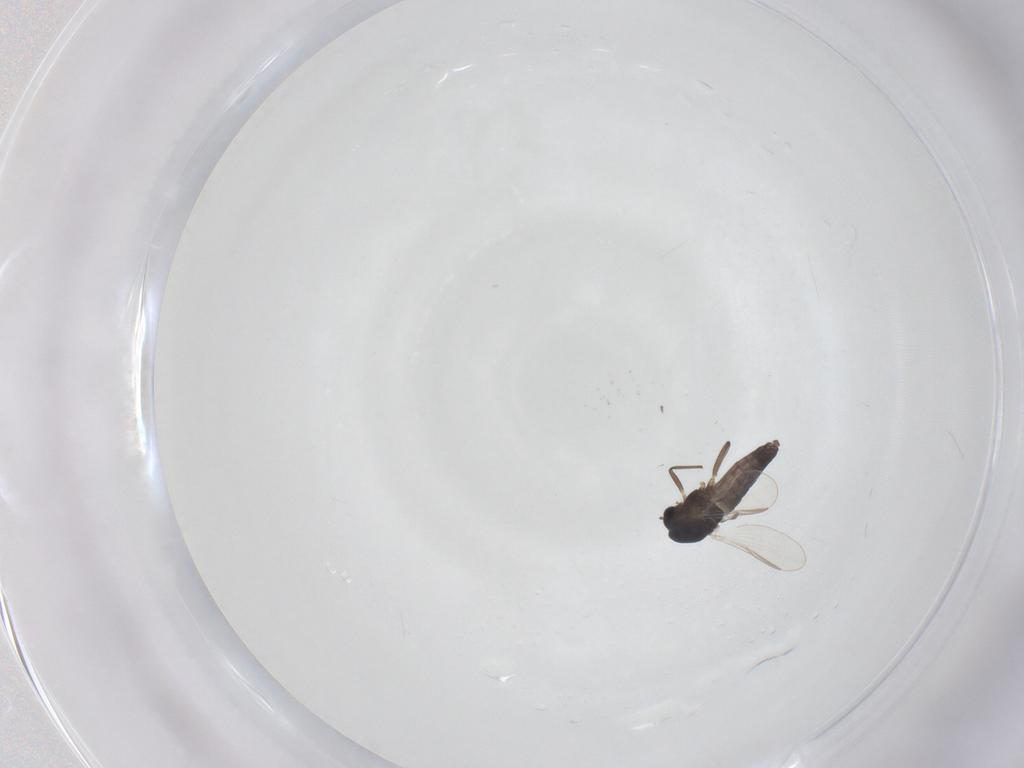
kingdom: Animalia
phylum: Arthropoda
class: Insecta
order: Diptera
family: Chironomidae
